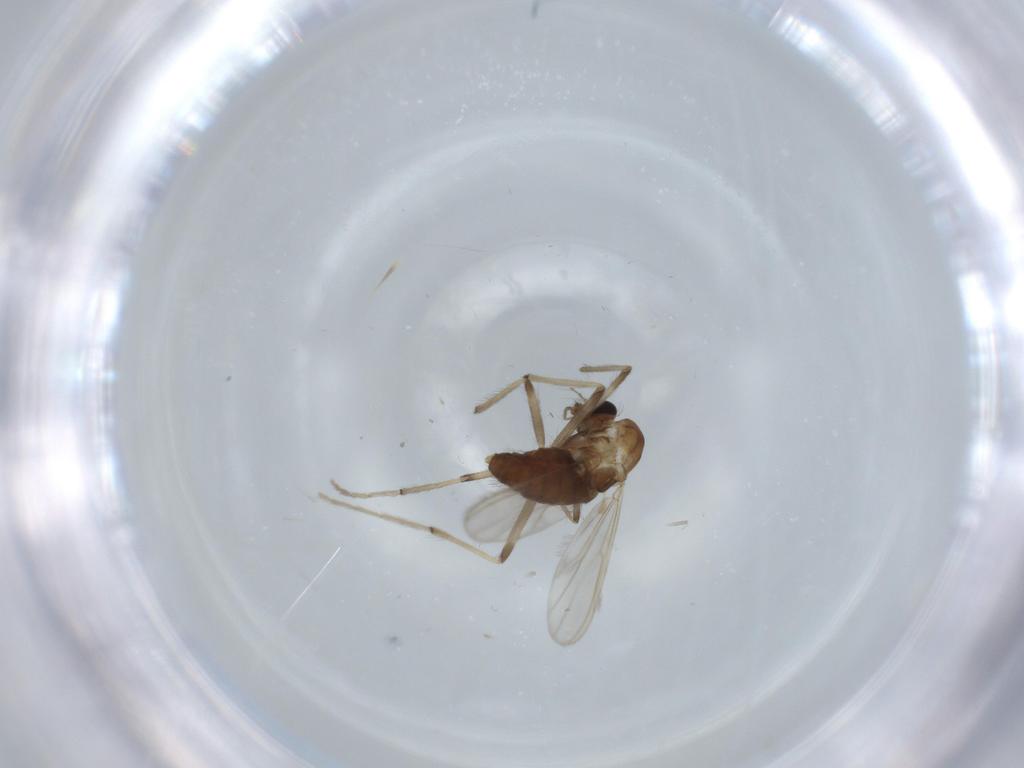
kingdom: Animalia
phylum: Arthropoda
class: Insecta
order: Diptera
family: Chironomidae
